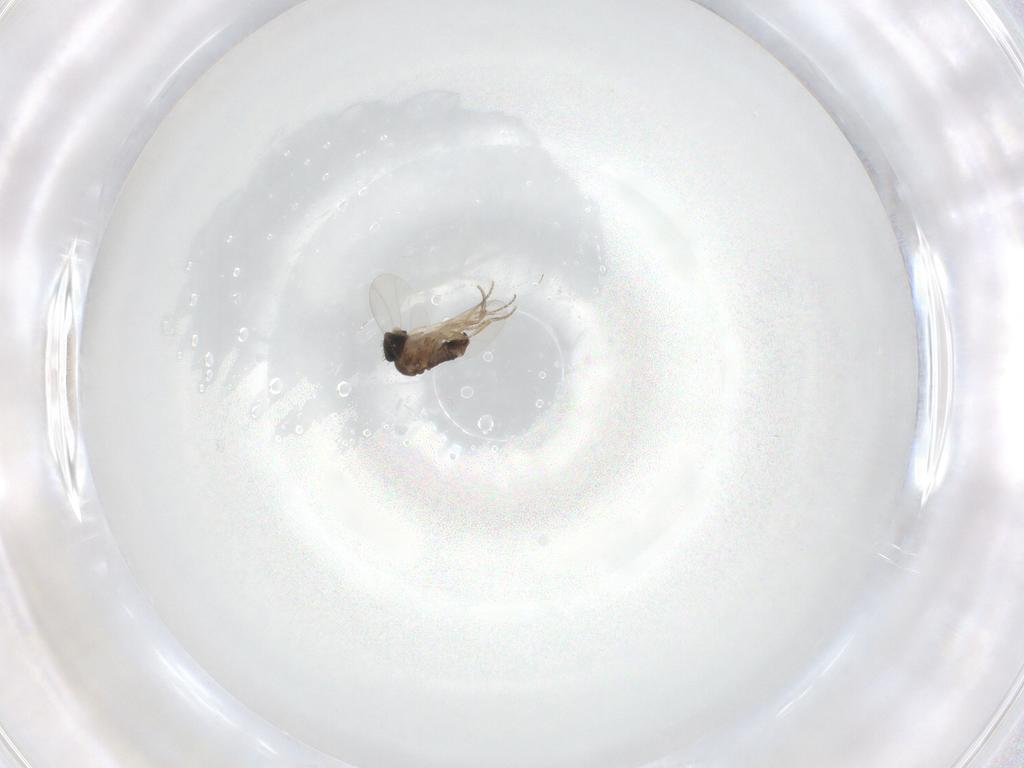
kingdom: Animalia
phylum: Arthropoda
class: Insecta
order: Diptera
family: Phoridae
